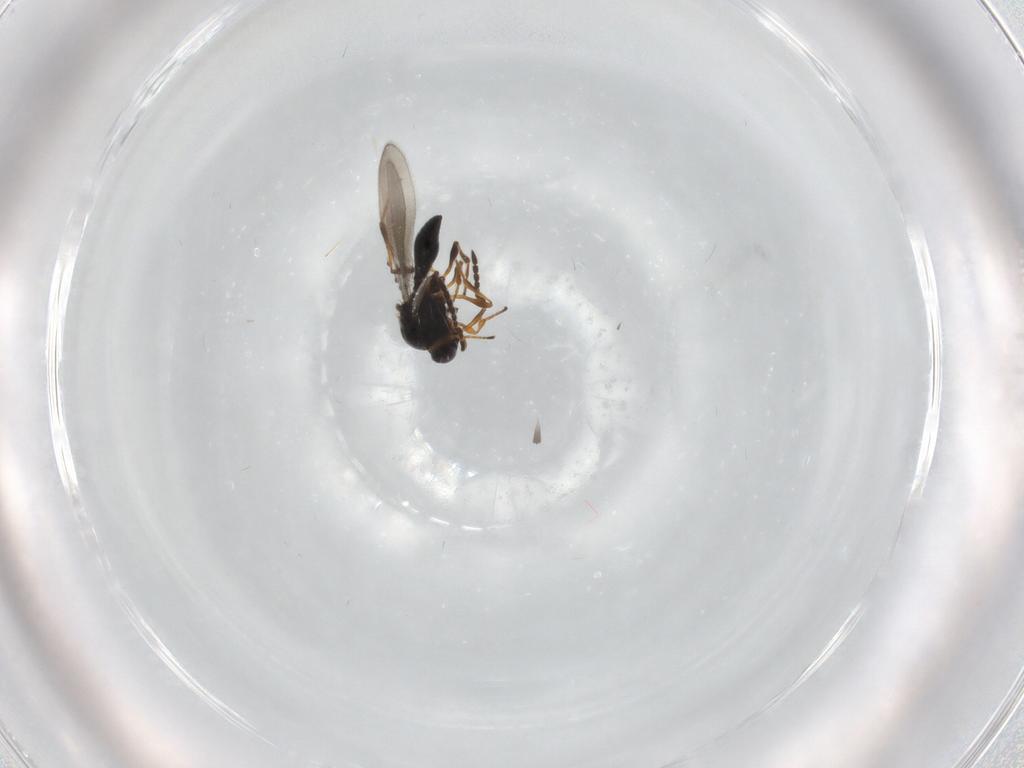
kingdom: Animalia
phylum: Arthropoda
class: Insecta
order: Hymenoptera
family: Platygastridae
